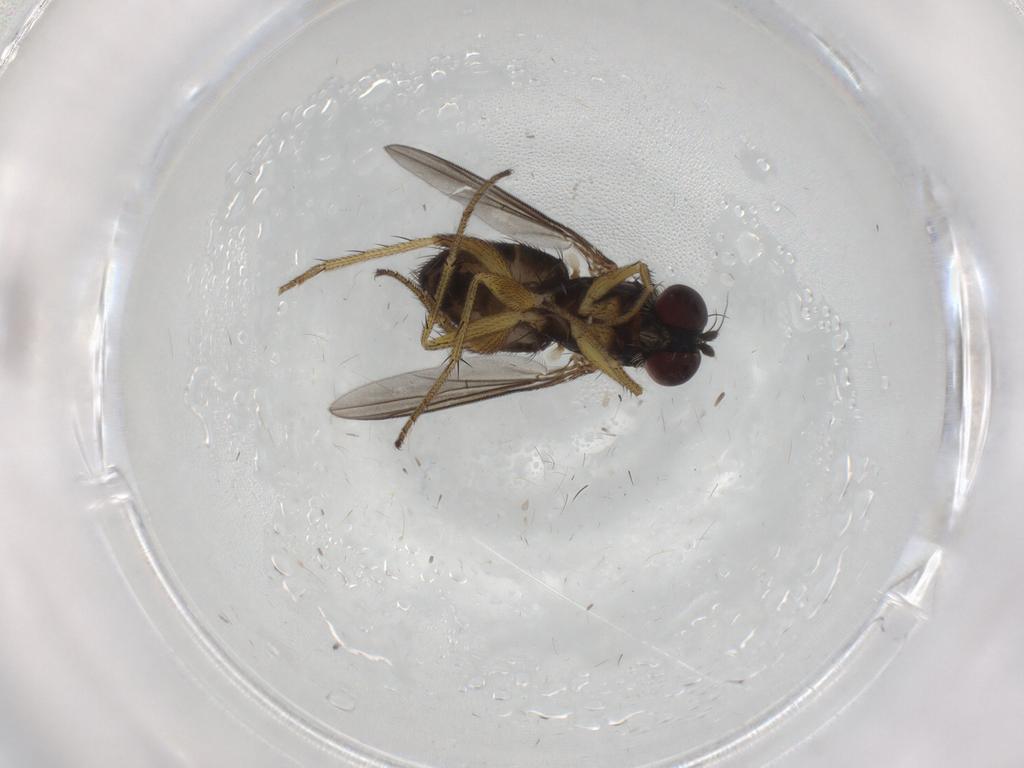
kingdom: Animalia
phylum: Arthropoda
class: Insecta
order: Diptera
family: Dolichopodidae
